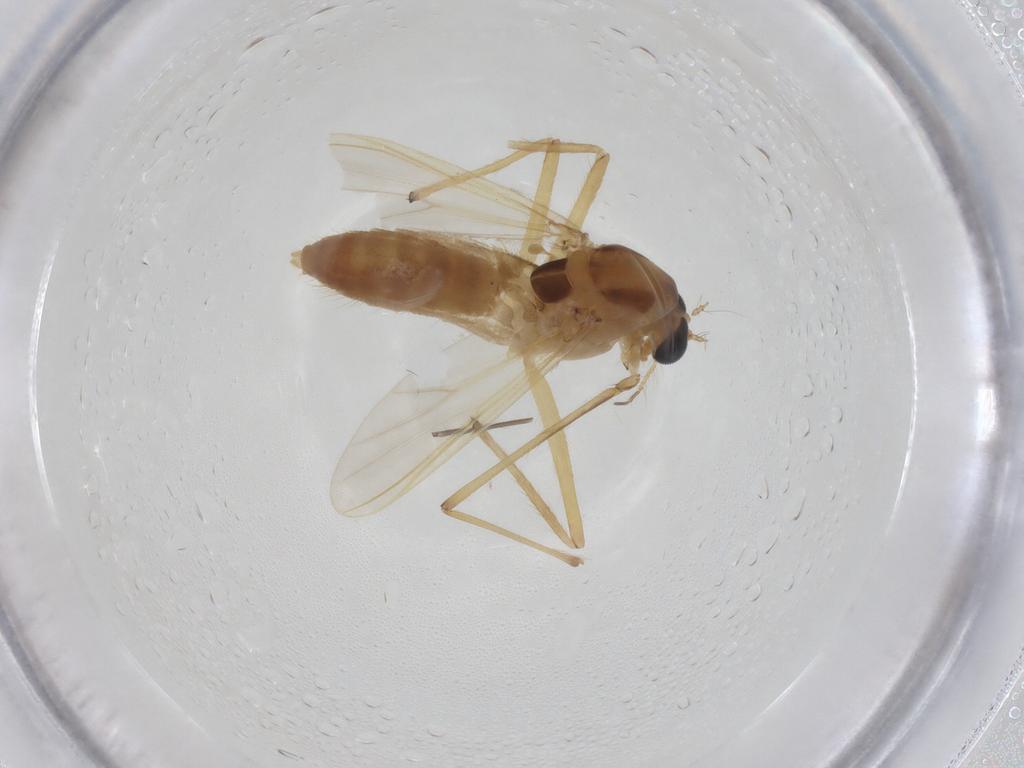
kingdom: Animalia
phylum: Arthropoda
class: Insecta
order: Diptera
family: Chironomidae
